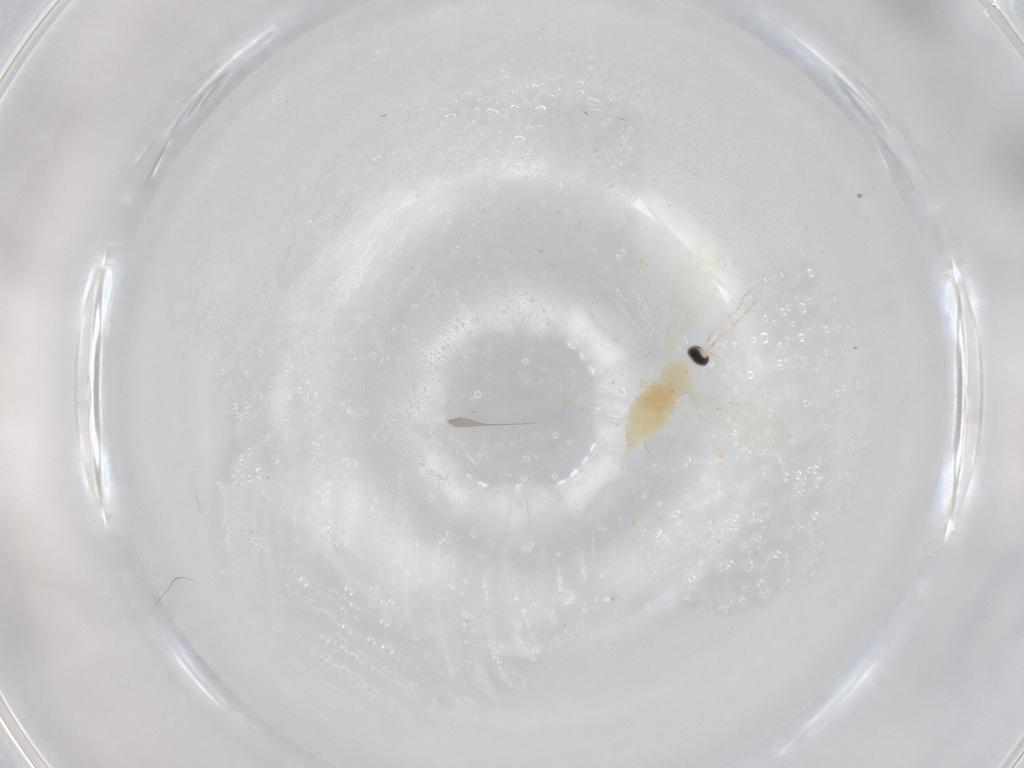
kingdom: Animalia
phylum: Arthropoda
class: Insecta
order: Diptera
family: Cecidomyiidae
